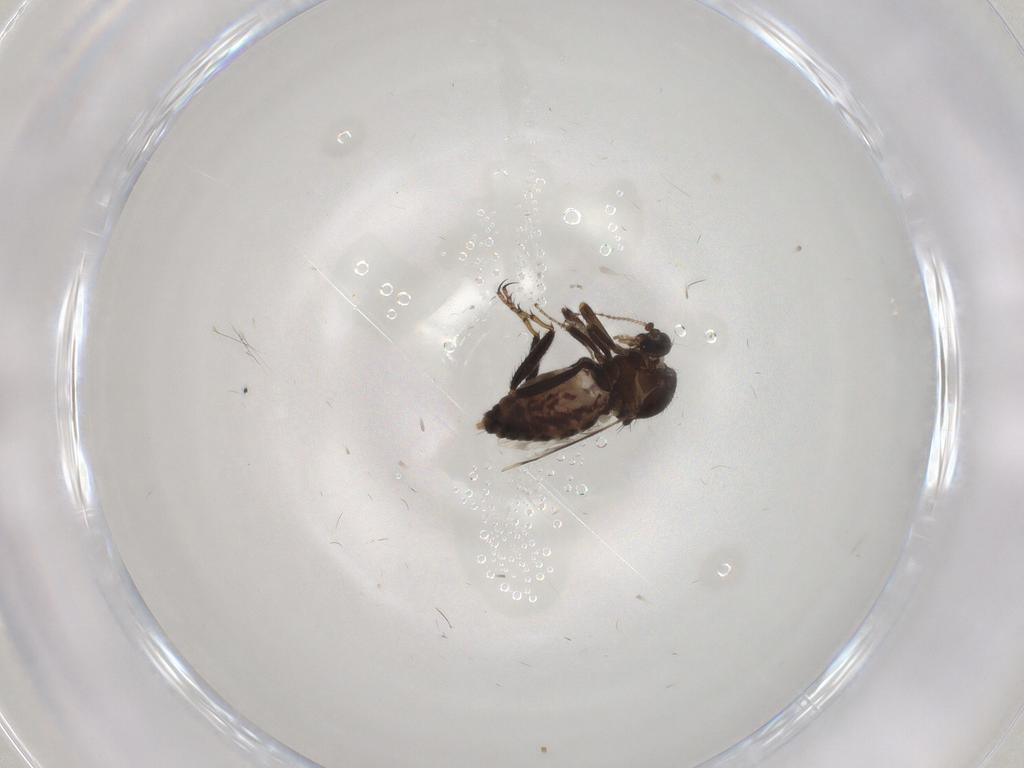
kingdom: Animalia
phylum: Arthropoda
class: Insecta
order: Diptera
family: Ceratopogonidae
